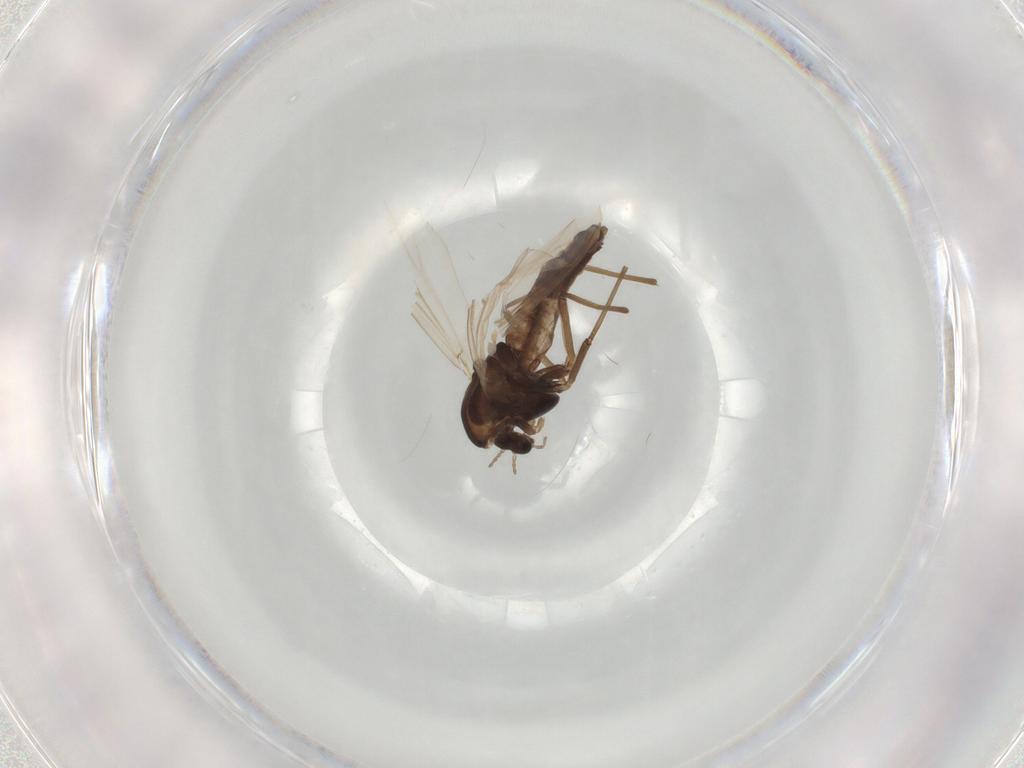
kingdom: Animalia
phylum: Arthropoda
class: Insecta
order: Diptera
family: Chironomidae
